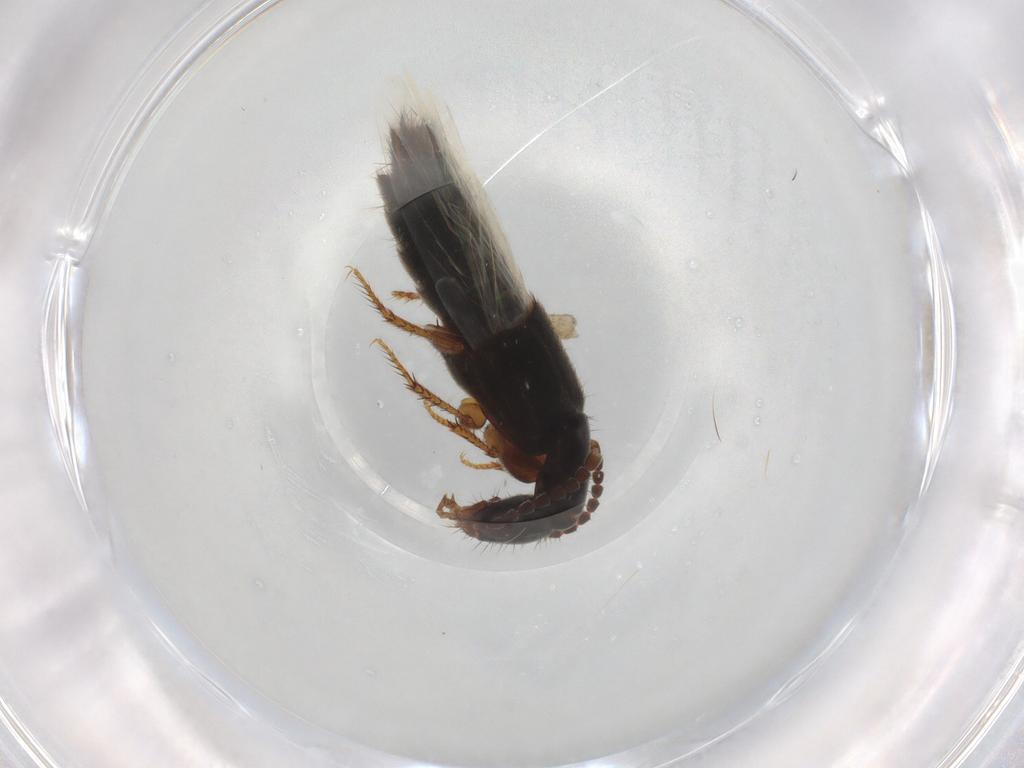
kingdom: Animalia
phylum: Arthropoda
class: Insecta
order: Coleoptera
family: Staphylinidae
